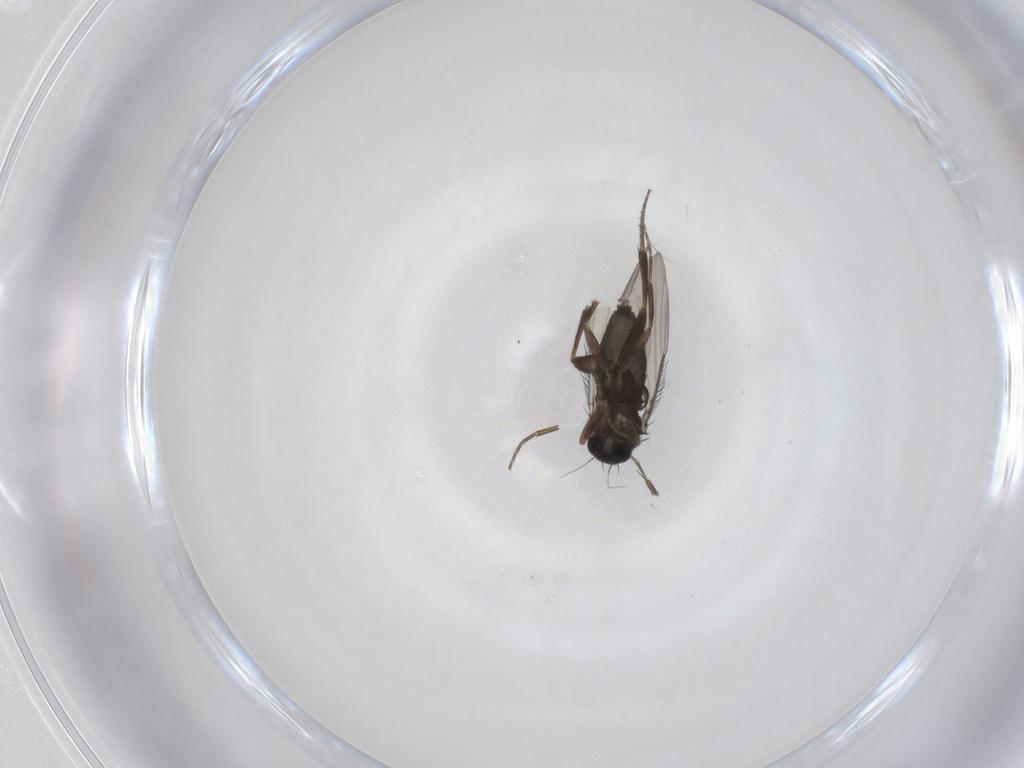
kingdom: Animalia
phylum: Arthropoda
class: Insecta
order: Diptera
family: Phoridae
